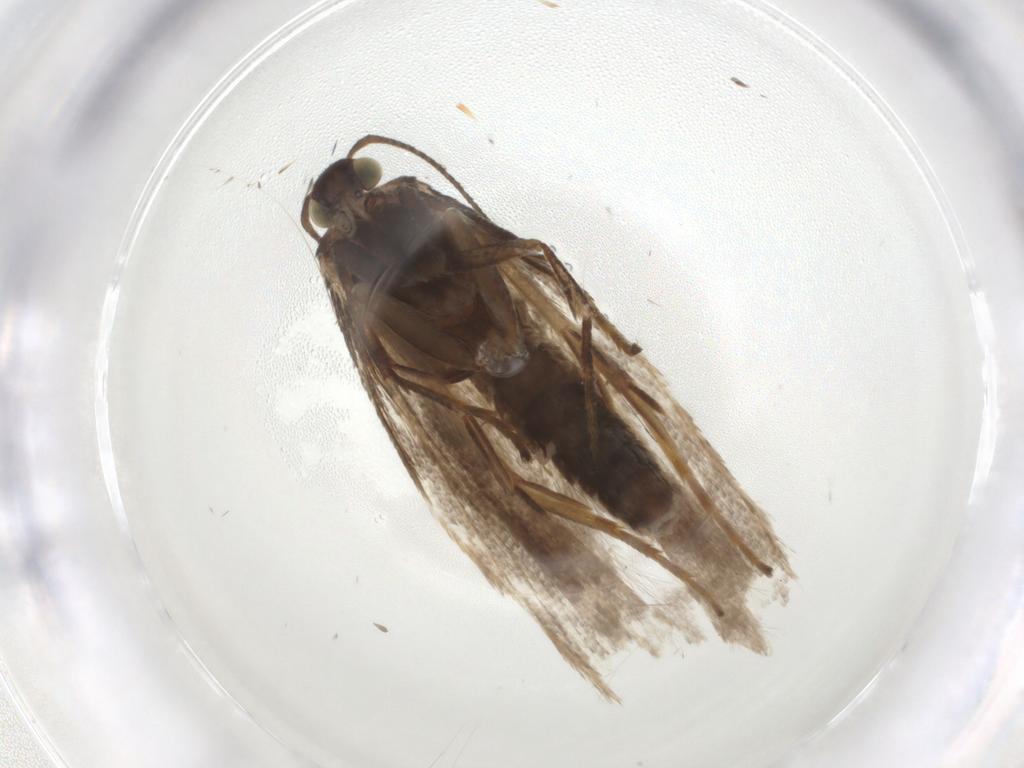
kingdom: Animalia
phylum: Arthropoda
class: Insecta
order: Lepidoptera
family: Gelechiidae
